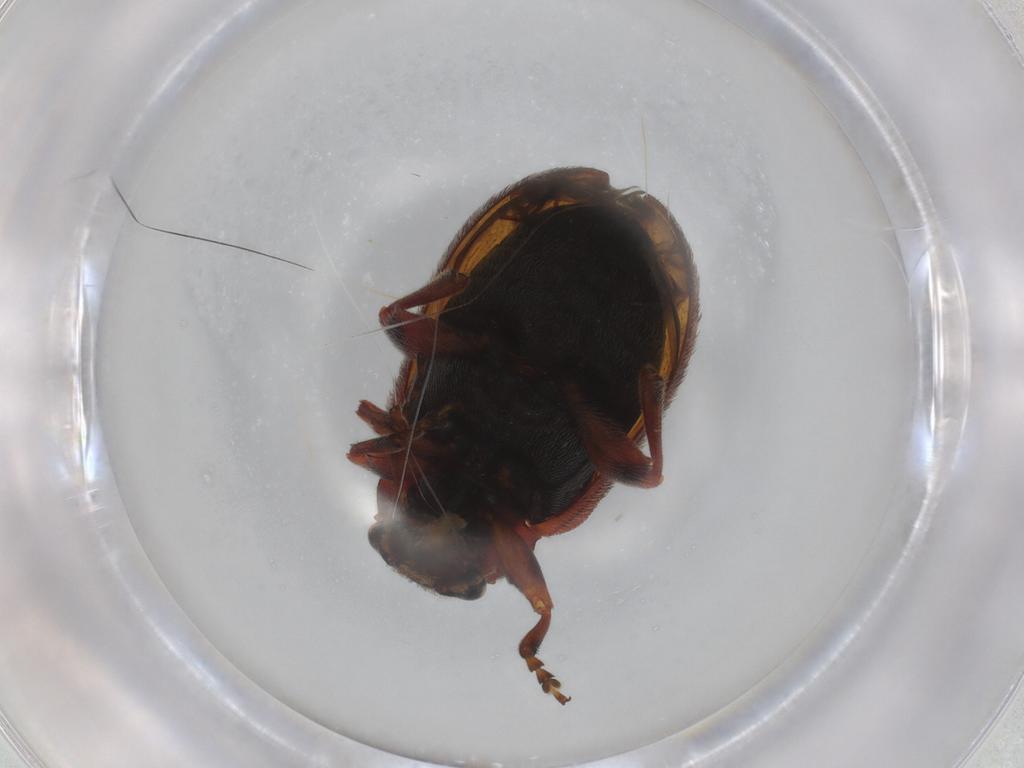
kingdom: Animalia
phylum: Arthropoda
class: Insecta
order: Coleoptera
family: Chrysomelidae
